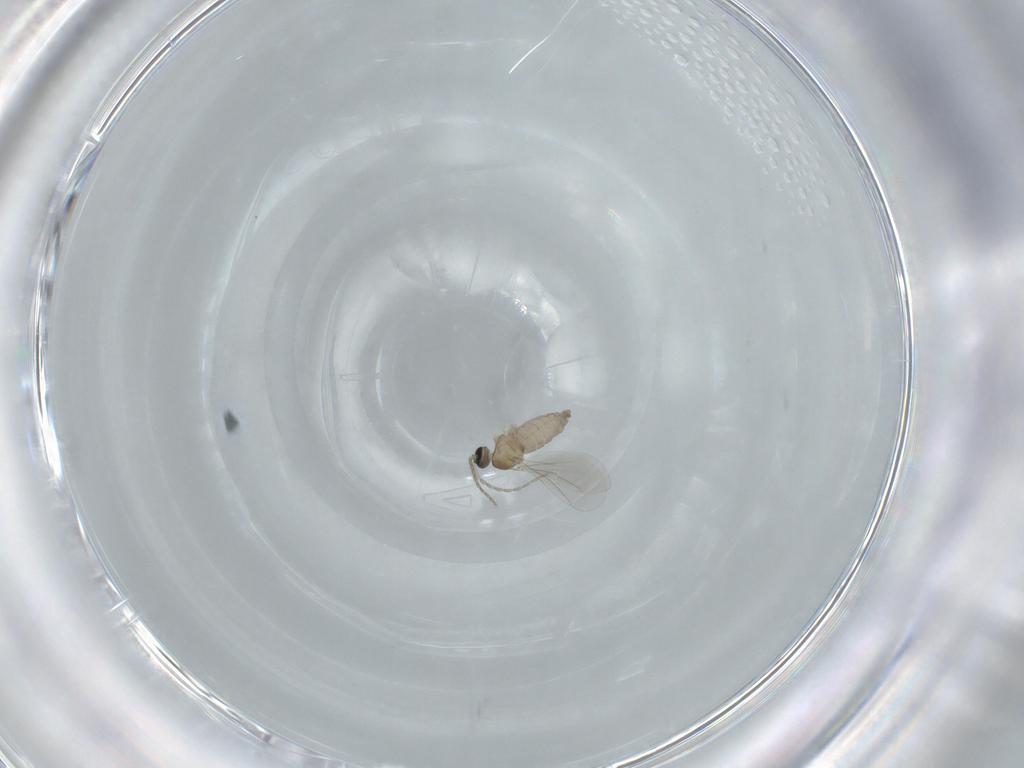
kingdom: Animalia
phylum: Arthropoda
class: Insecta
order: Diptera
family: Cecidomyiidae
